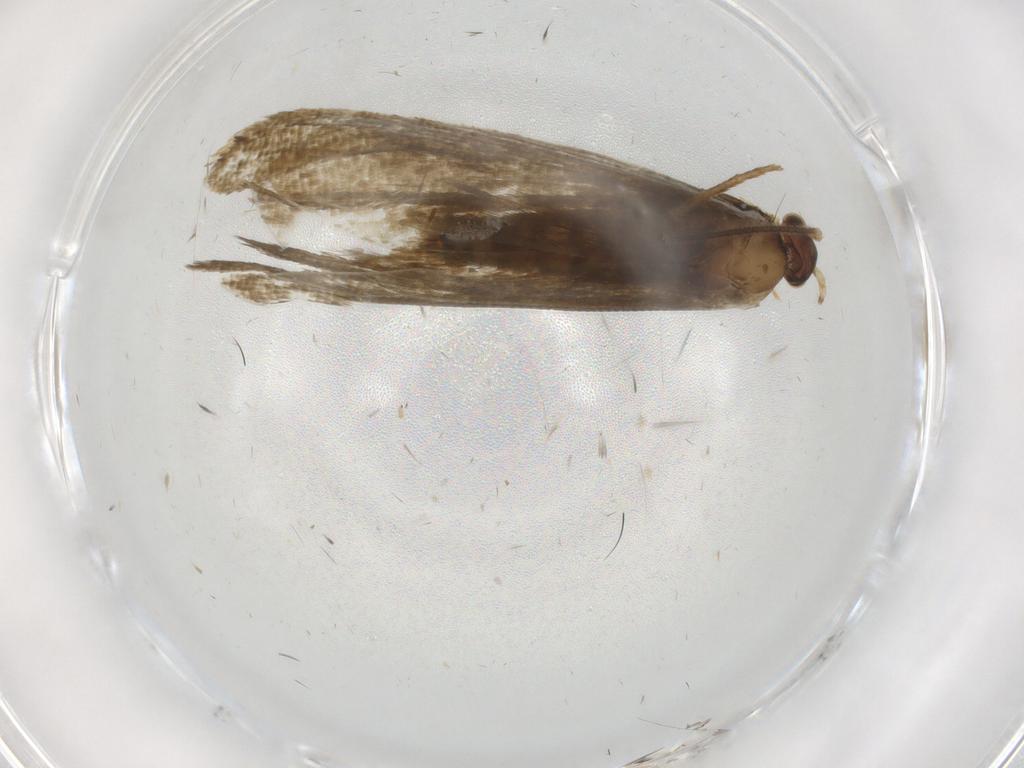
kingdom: Animalia
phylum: Arthropoda
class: Insecta
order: Lepidoptera
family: Tineidae
